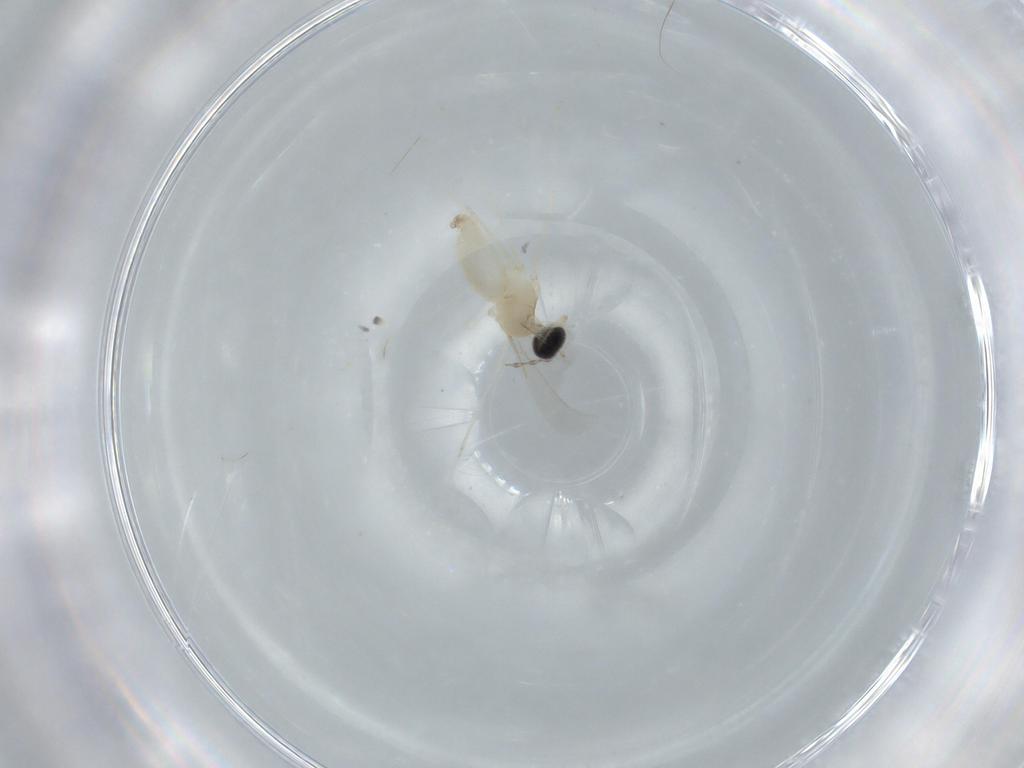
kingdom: Animalia
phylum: Arthropoda
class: Insecta
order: Diptera
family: Cecidomyiidae
